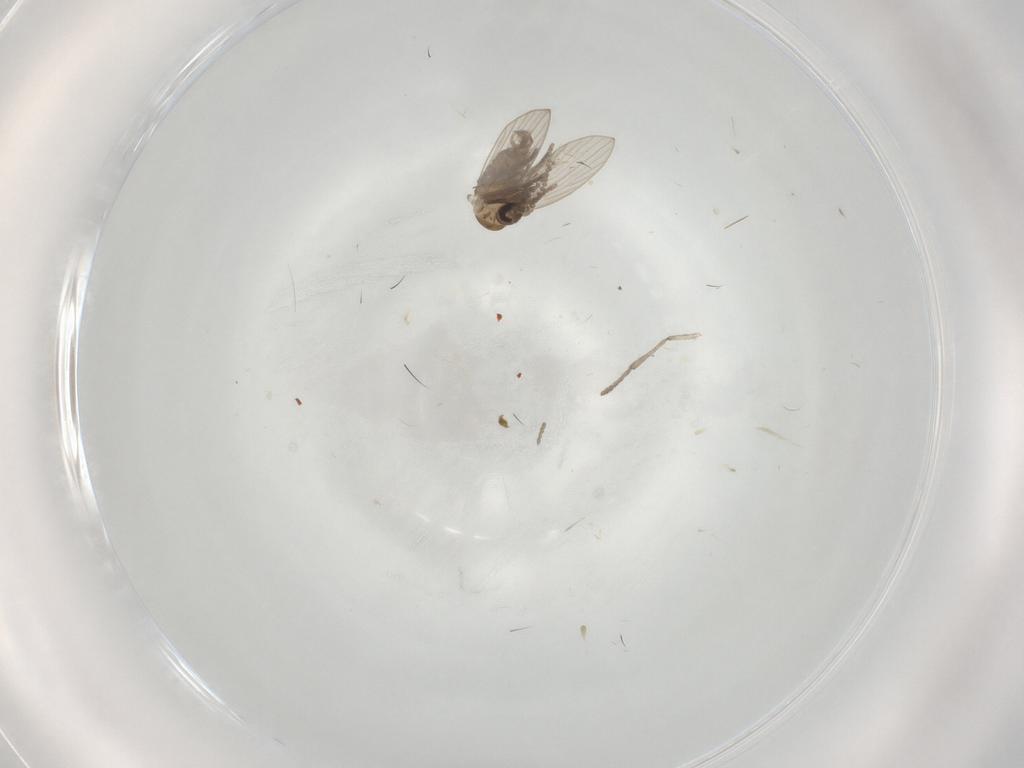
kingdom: Animalia
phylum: Arthropoda
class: Insecta
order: Diptera
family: Psychodidae
